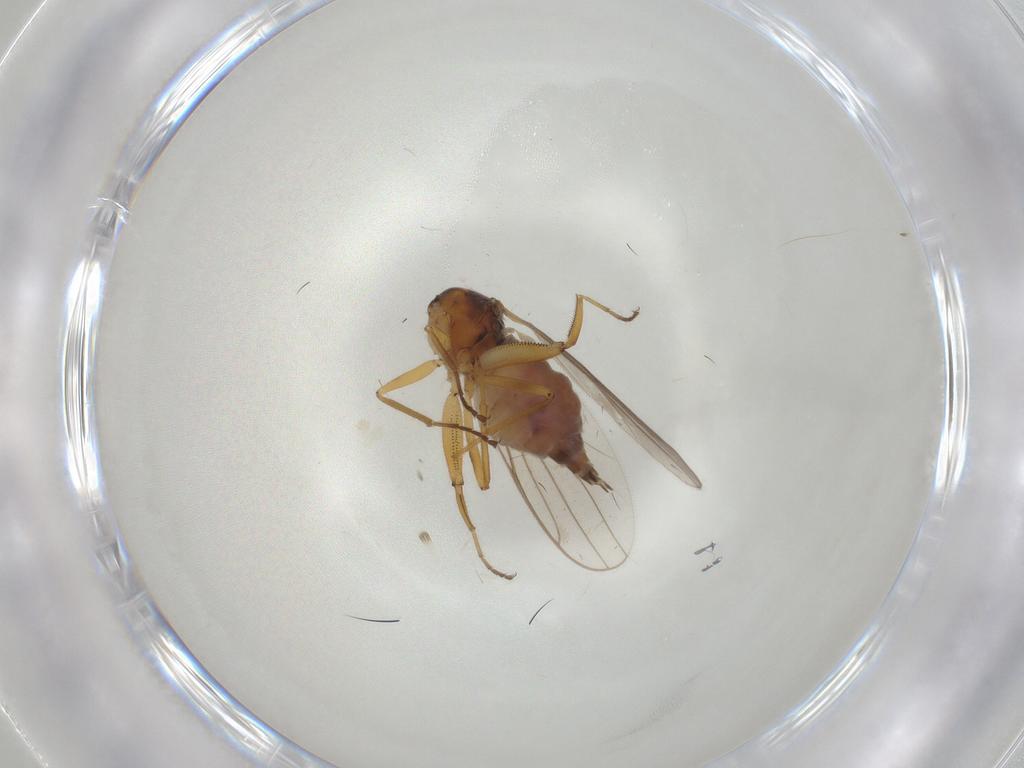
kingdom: Animalia
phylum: Arthropoda
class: Insecta
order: Diptera
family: Hybotidae
